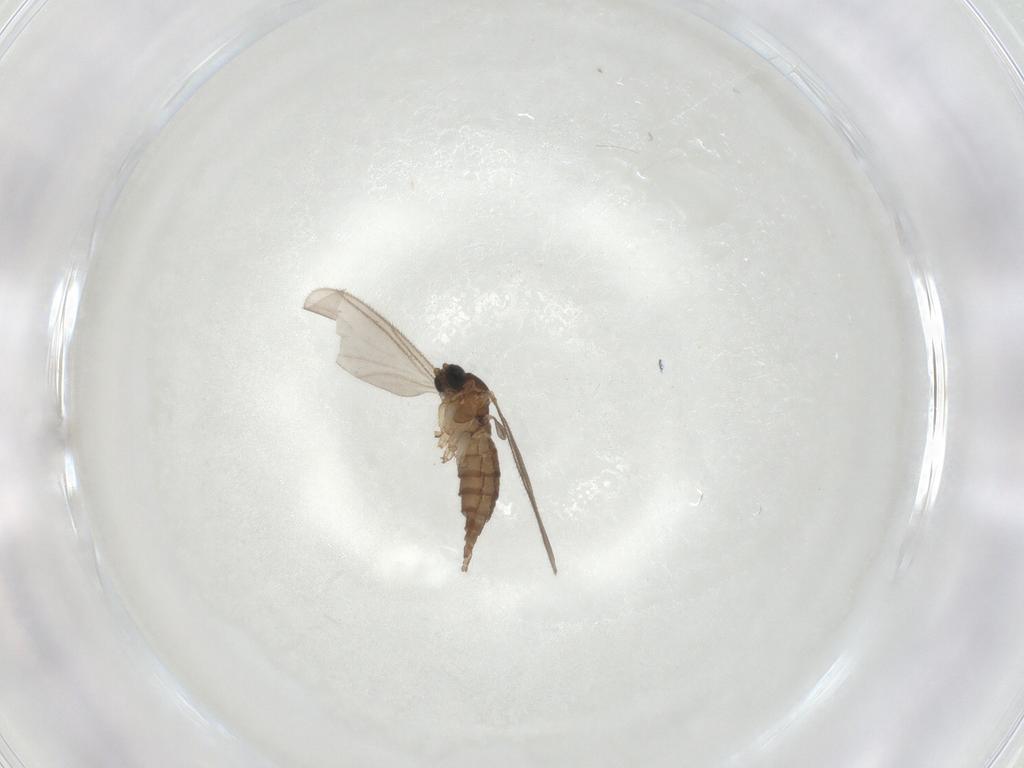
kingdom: Animalia
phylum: Arthropoda
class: Insecta
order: Diptera
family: Sciaridae
